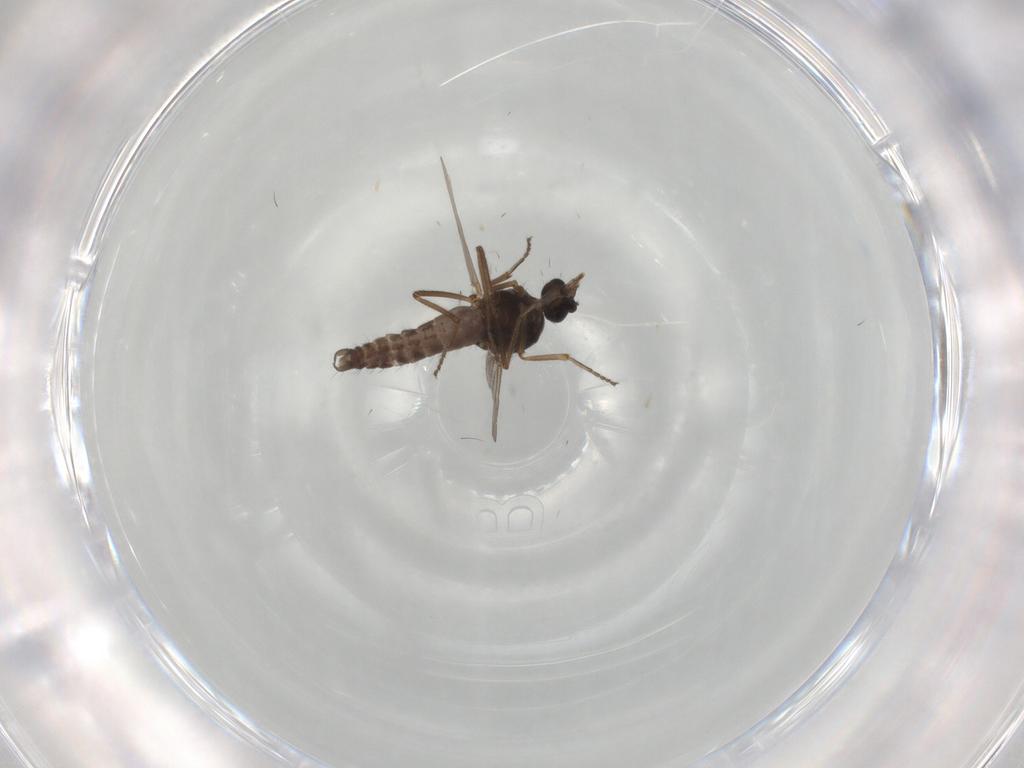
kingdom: Animalia
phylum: Arthropoda
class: Insecta
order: Diptera
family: Ceratopogonidae
